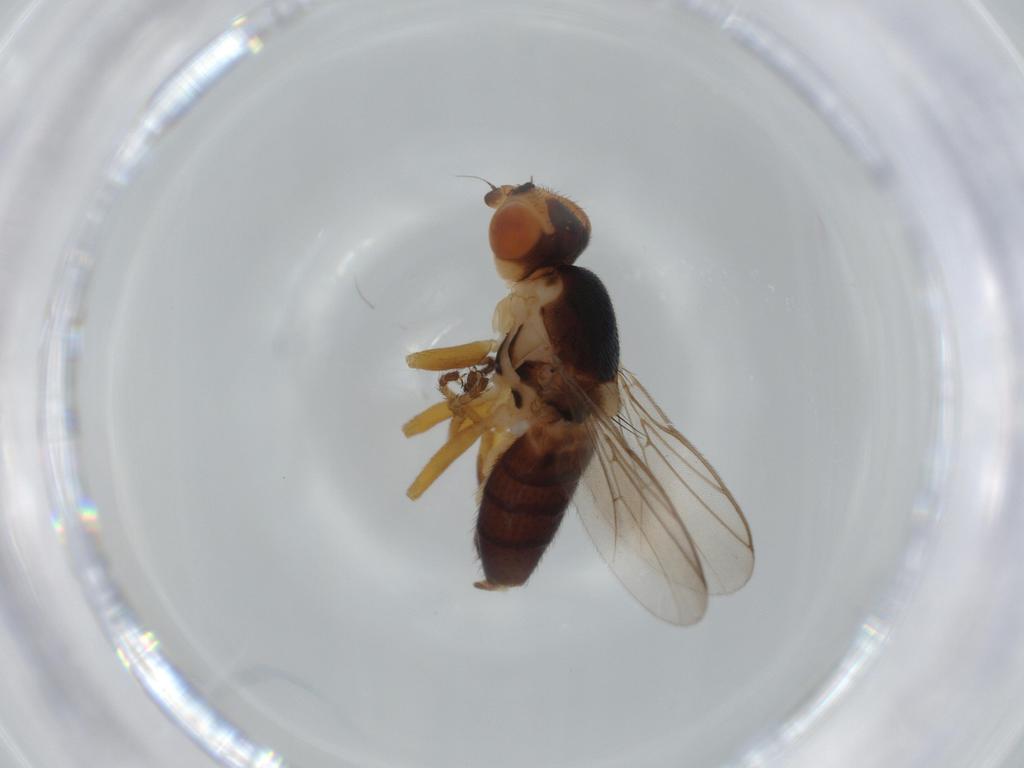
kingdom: Animalia
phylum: Arthropoda
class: Insecta
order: Diptera
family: Chloropidae
